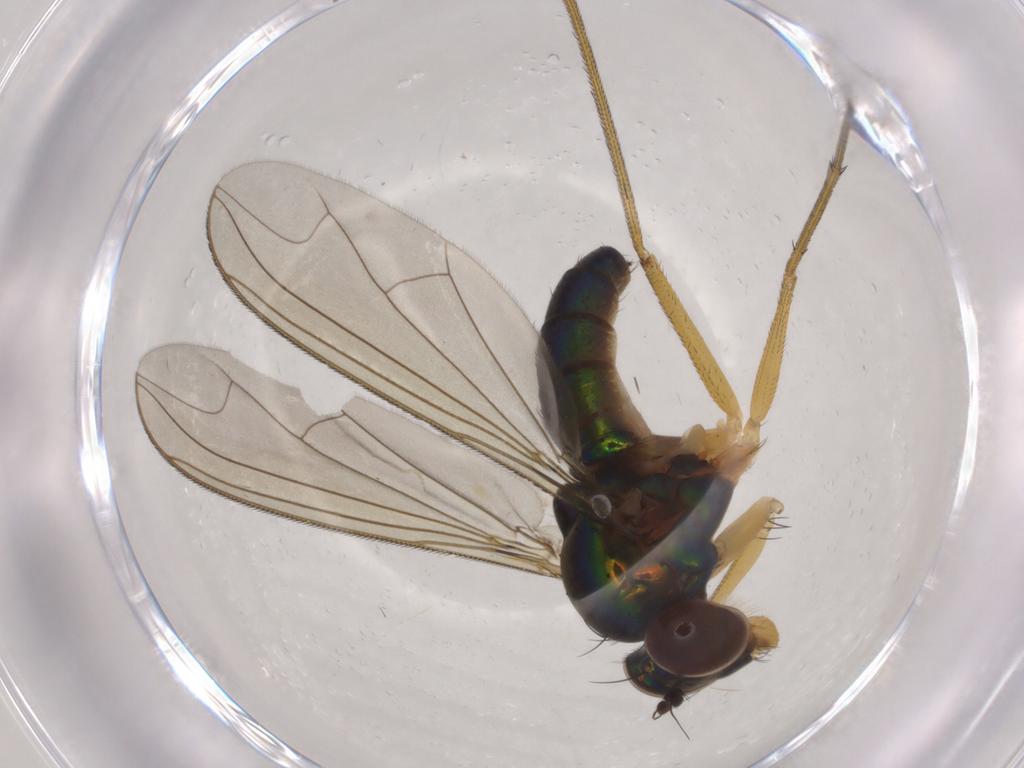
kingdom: Animalia
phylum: Arthropoda
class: Insecta
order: Diptera
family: Dolichopodidae
